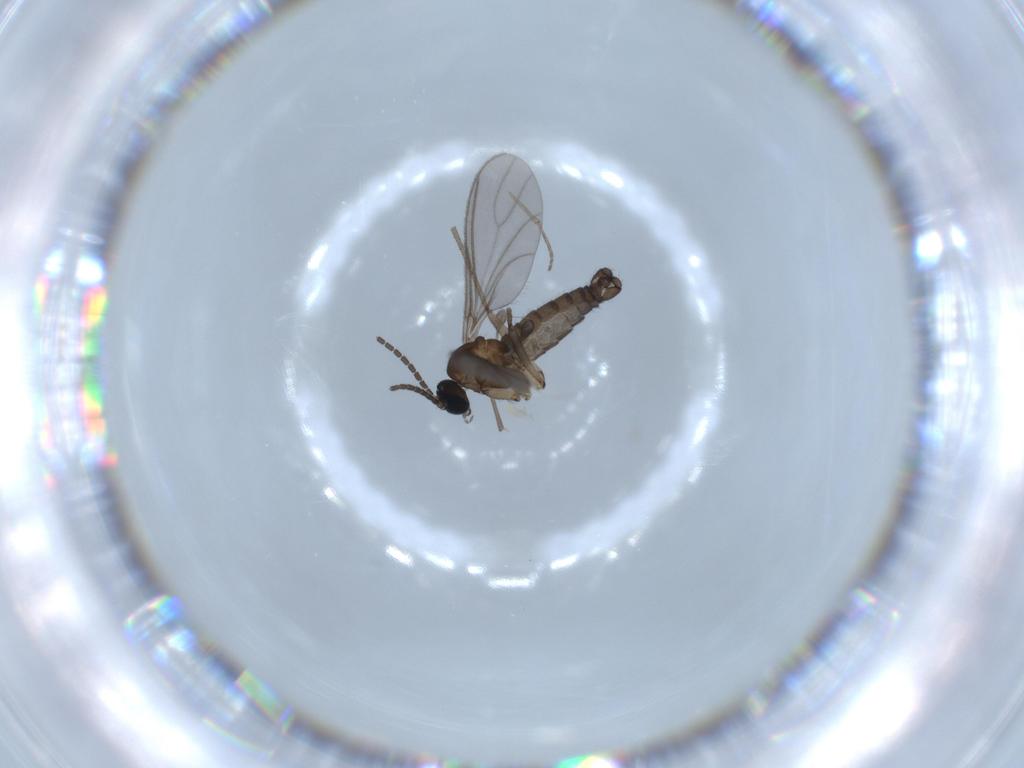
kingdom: Animalia
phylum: Arthropoda
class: Insecta
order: Diptera
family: Sciaridae
